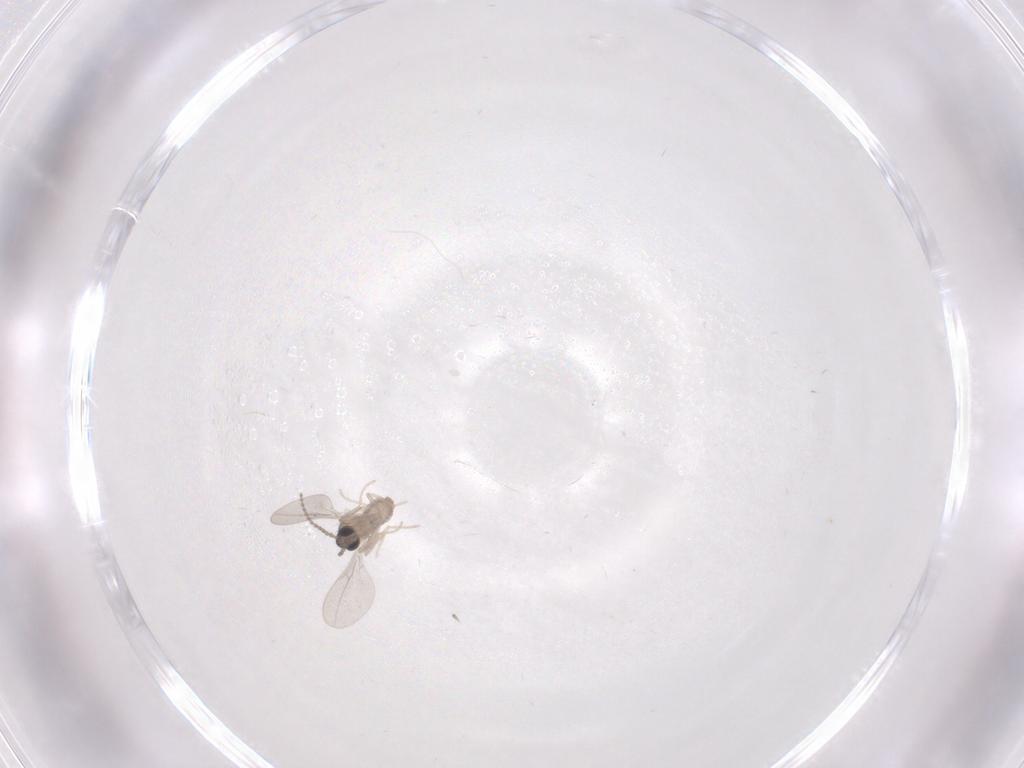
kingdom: Animalia
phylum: Arthropoda
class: Insecta
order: Diptera
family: Cecidomyiidae
